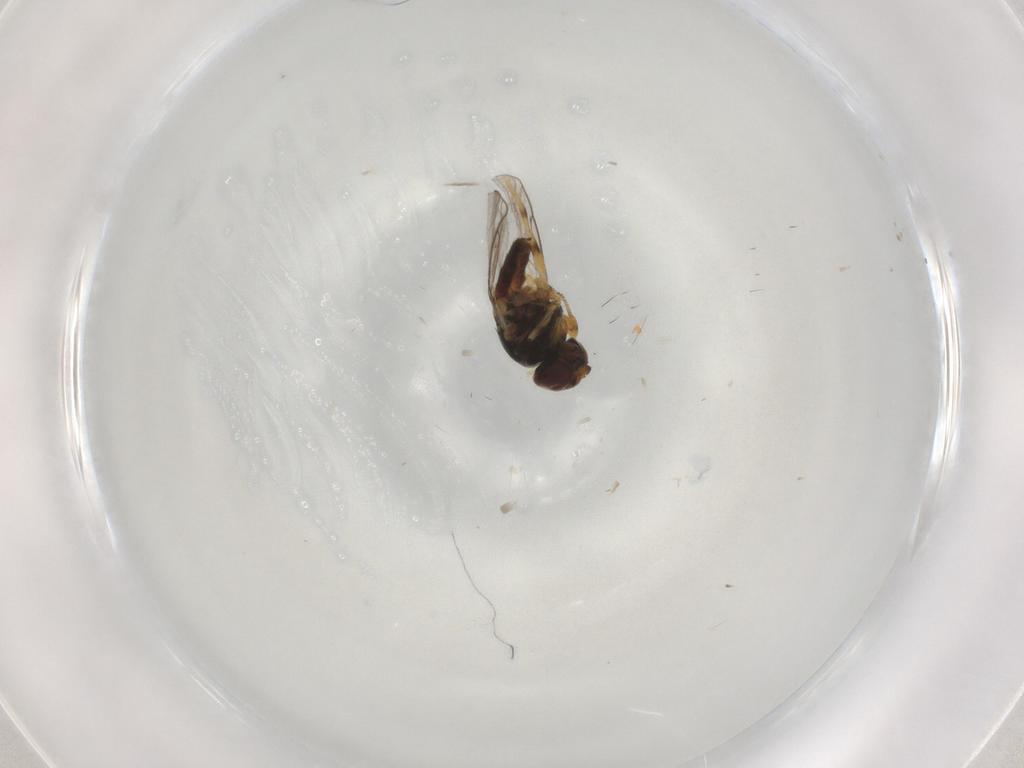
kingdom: Animalia
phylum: Arthropoda
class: Insecta
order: Diptera
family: Chloropidae
